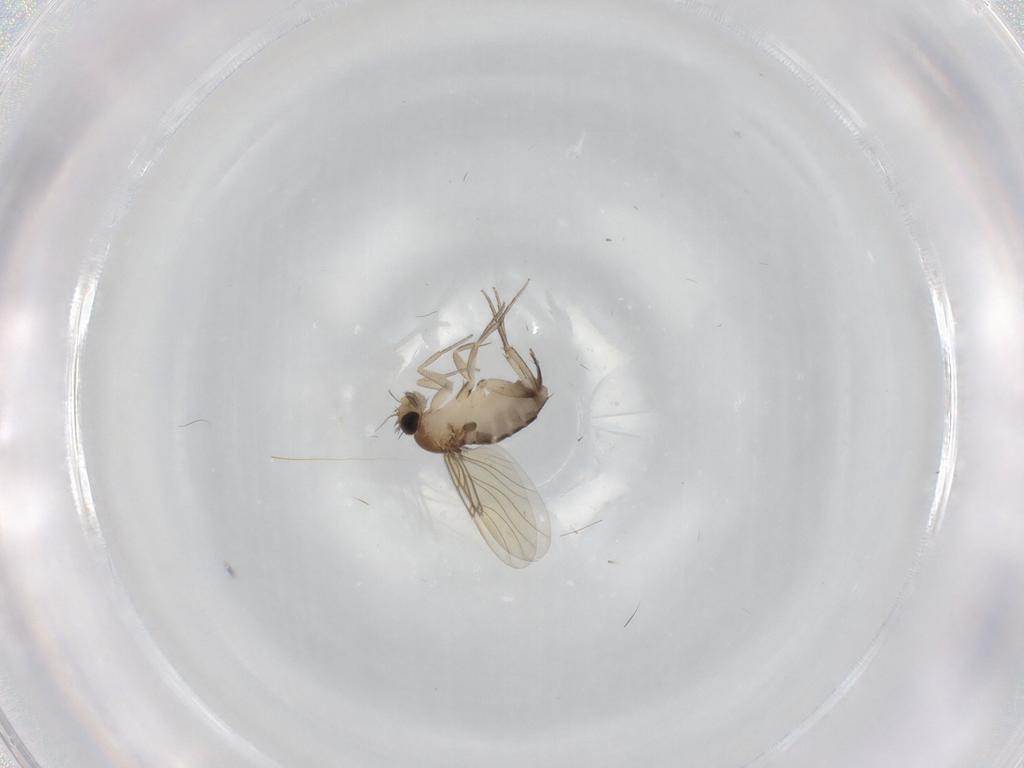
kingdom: Animalia
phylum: Arthropoda
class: Insecta
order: Diptera
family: Phoridae
